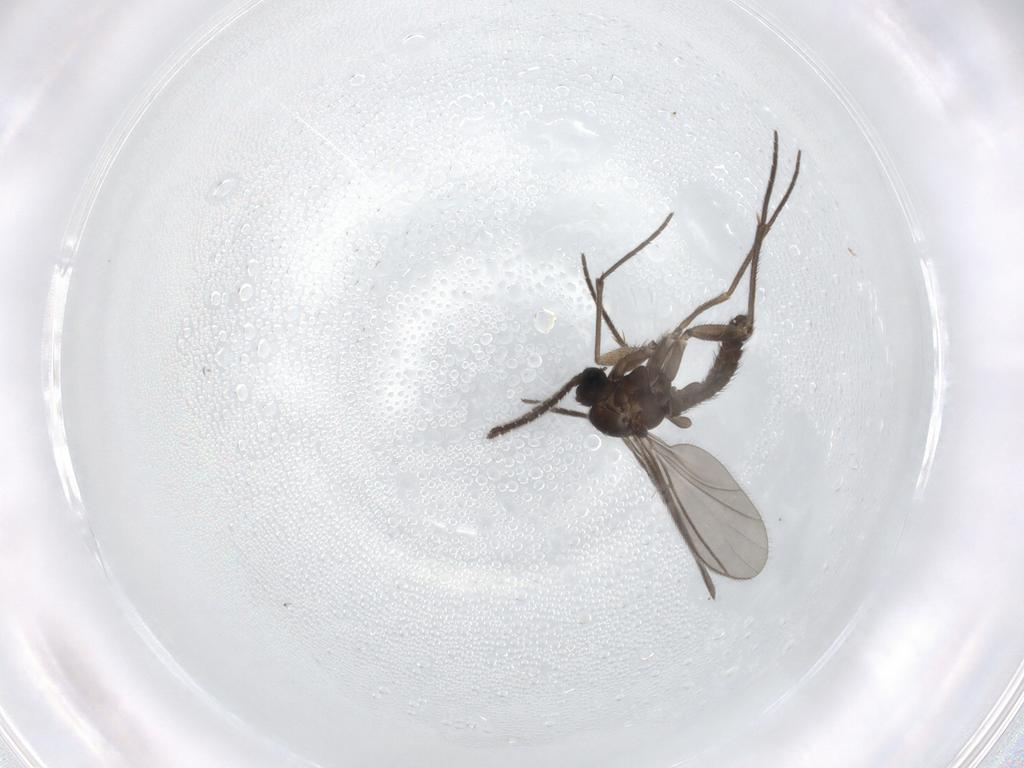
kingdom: Animalia
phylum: Arthropoda
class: Insecta
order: Diptera
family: Sciaridae
